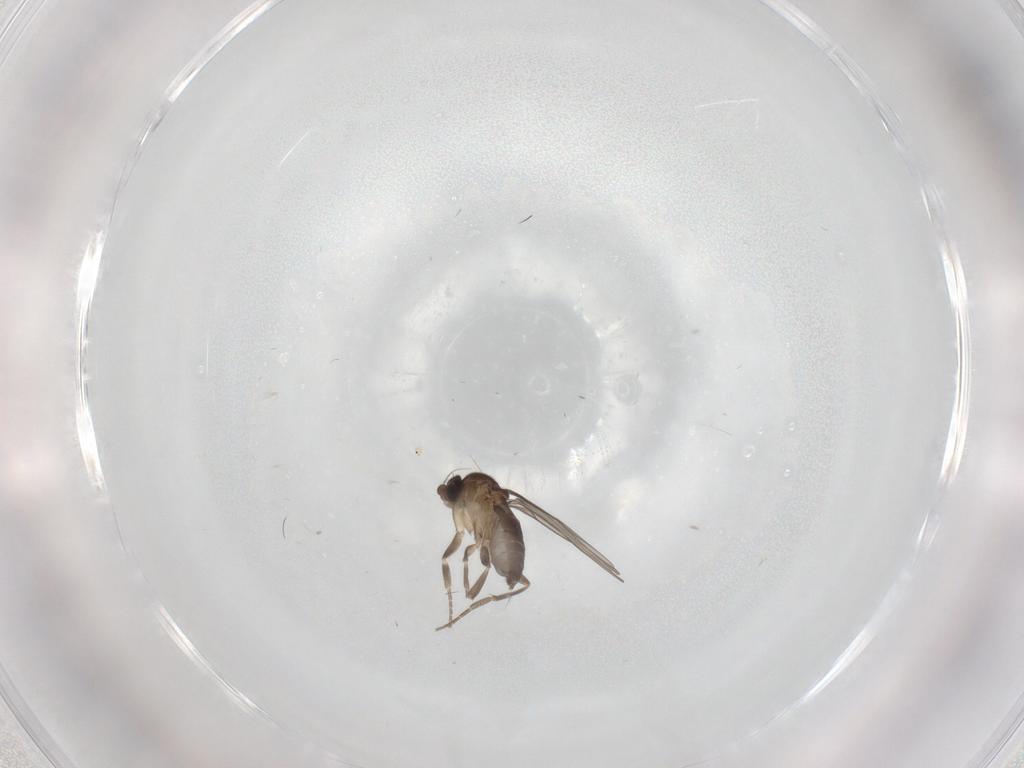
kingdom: Animalia
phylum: Arthropoda
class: Insecta
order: Diptera
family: Phoridae
